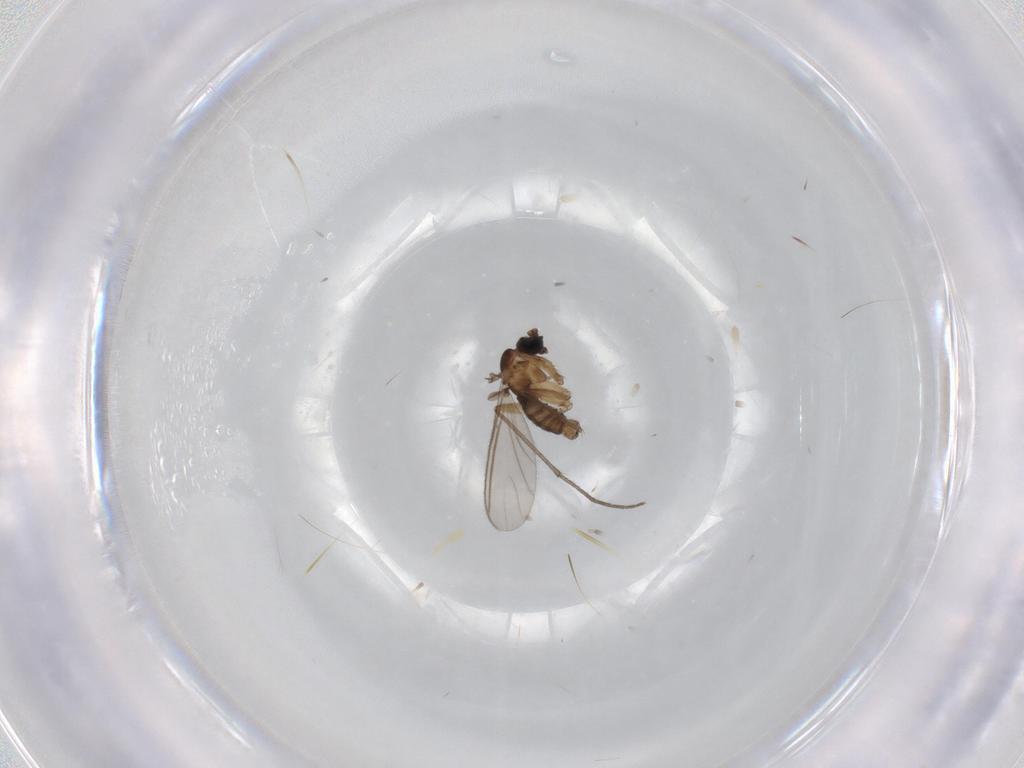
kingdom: Animalia
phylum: Arthropoda
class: Insecta
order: Diptera
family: Sciaridae
